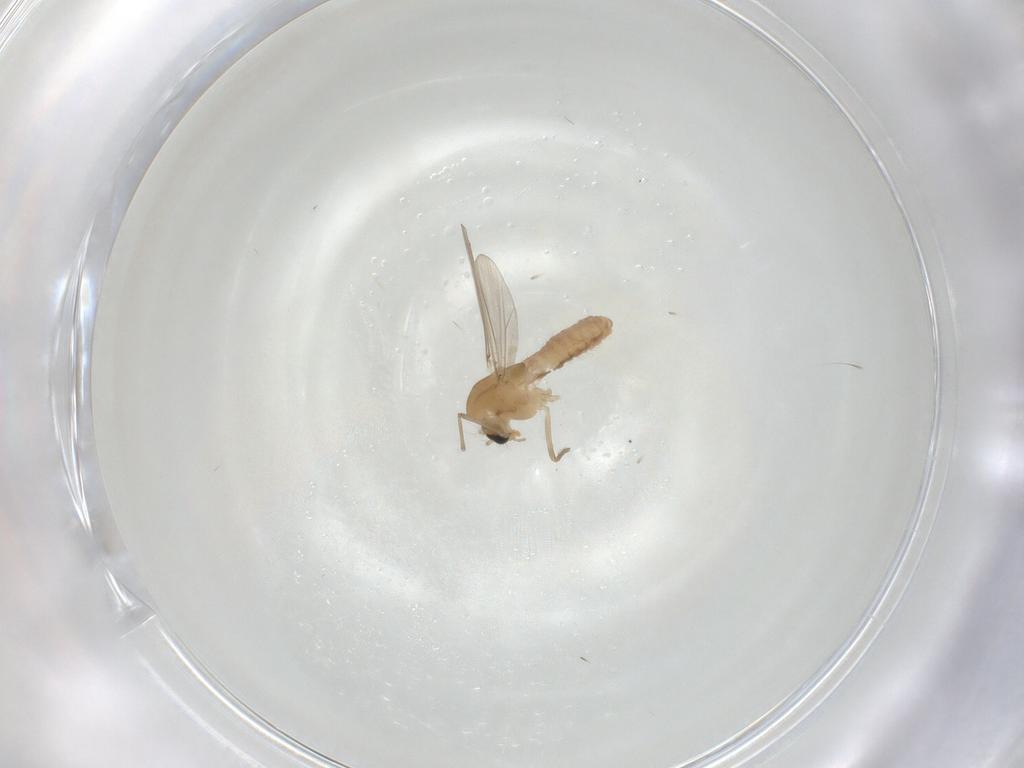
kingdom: Animalia
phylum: Arthropoda
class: Insecta
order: Diptera
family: Chironomidae
